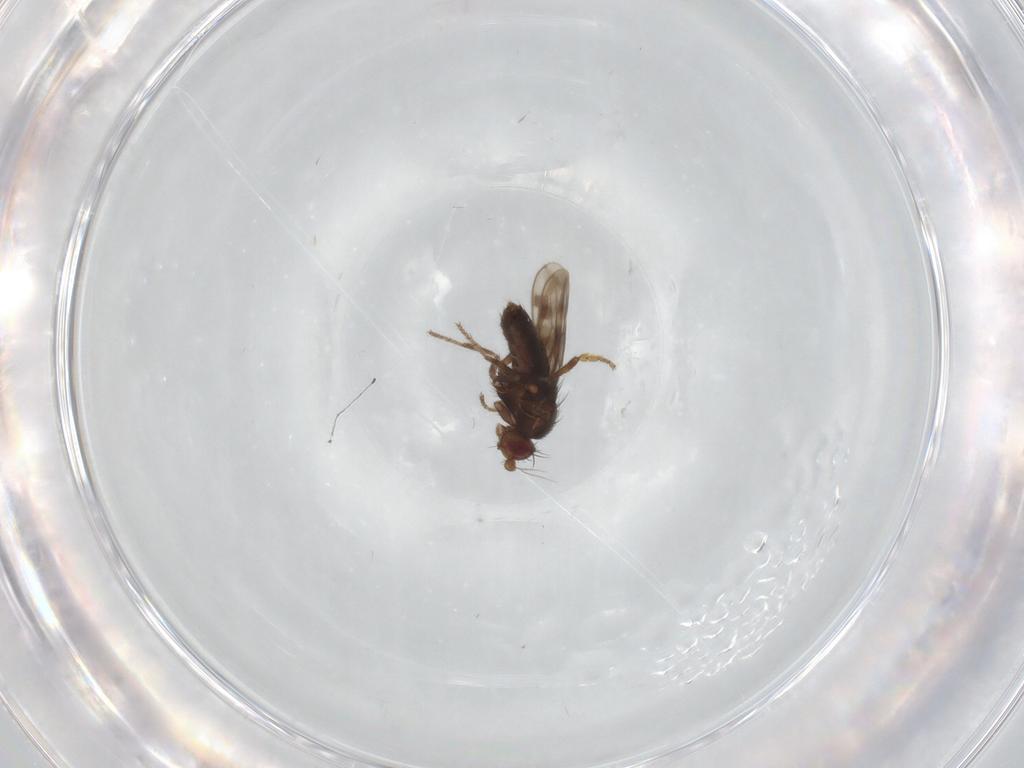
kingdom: Animalia
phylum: Arthropoda
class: Insecta
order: Diptera
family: Sphaeroceridae
